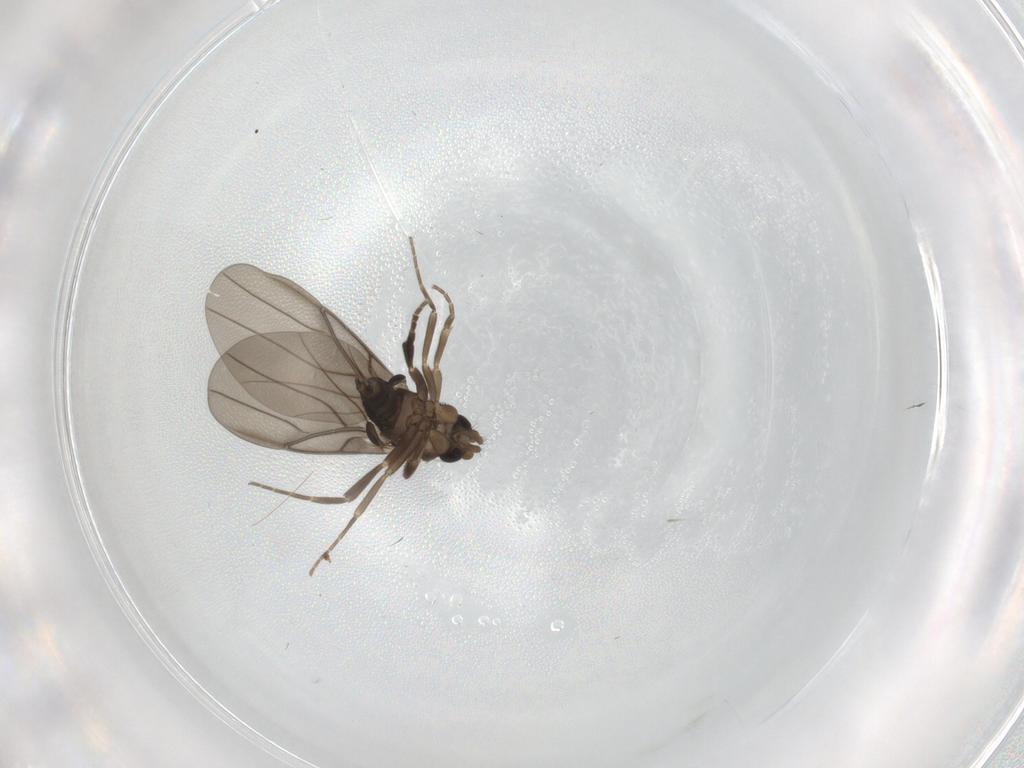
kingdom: Animalia
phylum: Arthropoda
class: Insecta
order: Diptera
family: Phoridae
